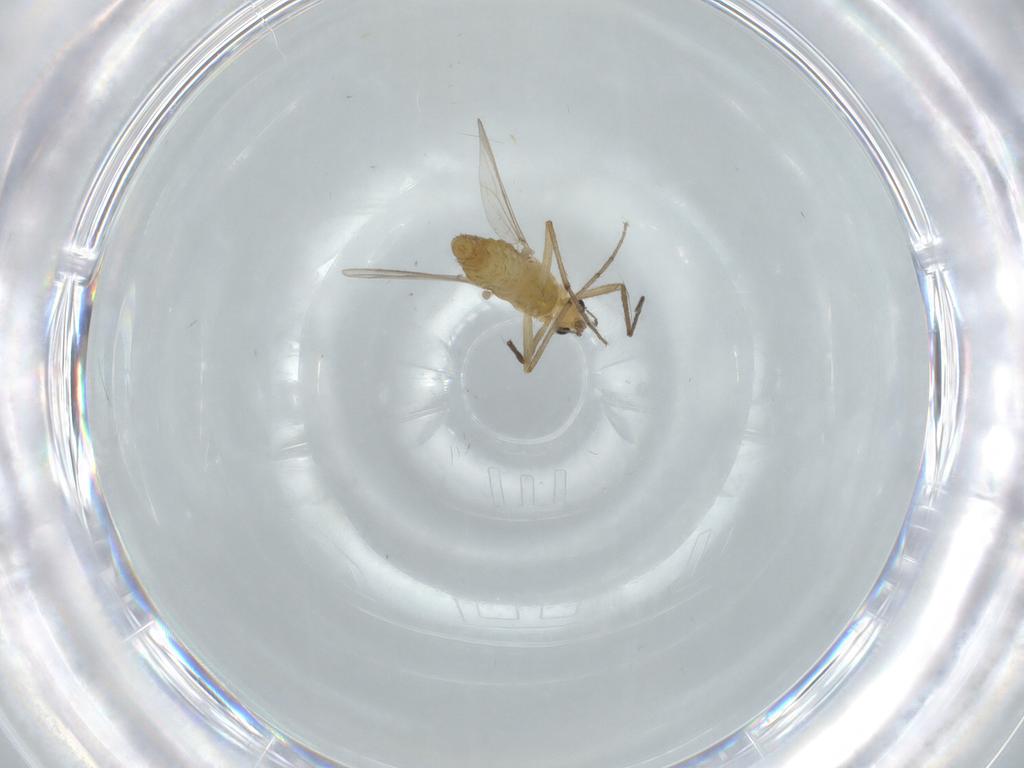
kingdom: Animalia
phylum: Arthropoda
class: Insecta
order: Diptera
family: Chironomidae
